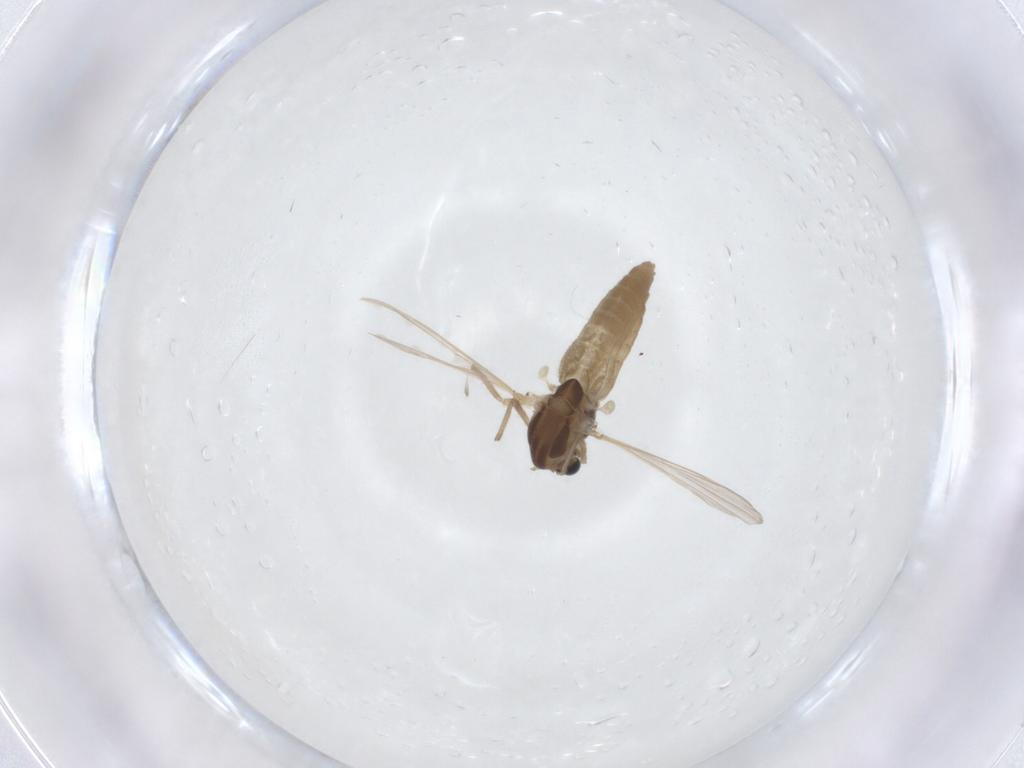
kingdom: Animalia
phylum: Arthropoda
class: Insecta
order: Diptera
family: Chironomidae
